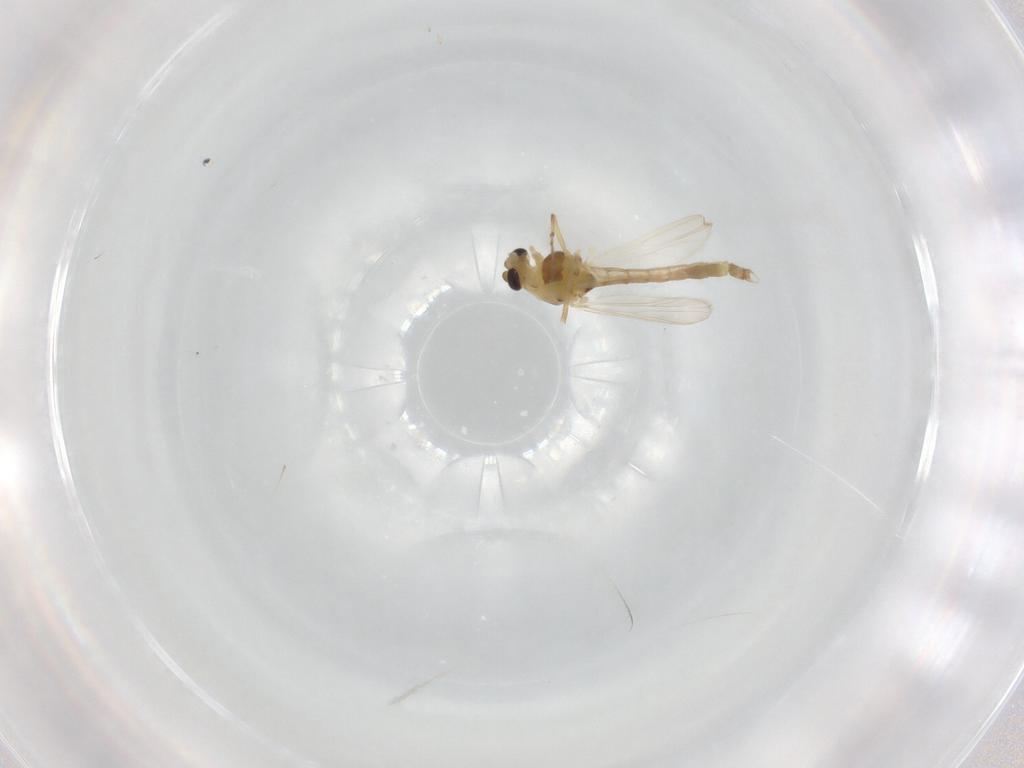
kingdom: Animalia
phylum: Arthropoda
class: Insecta
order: Diptera
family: Chironomidae
